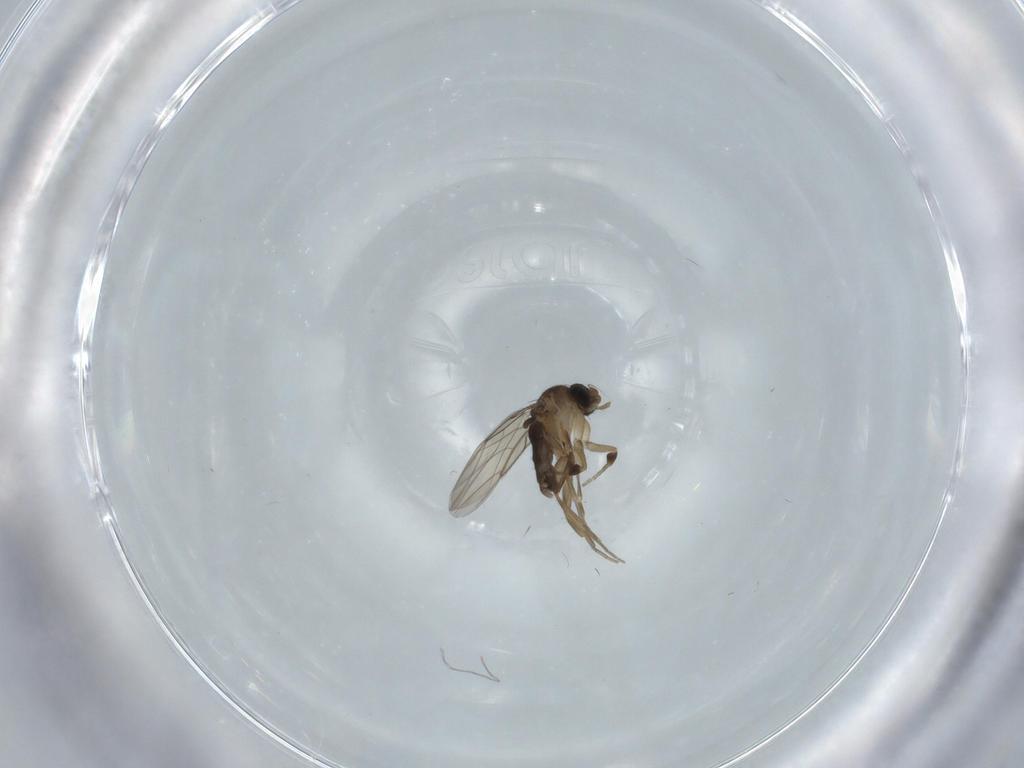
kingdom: Animalia
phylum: Arthropoda
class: Insecta
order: Diptera
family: Phoridae
